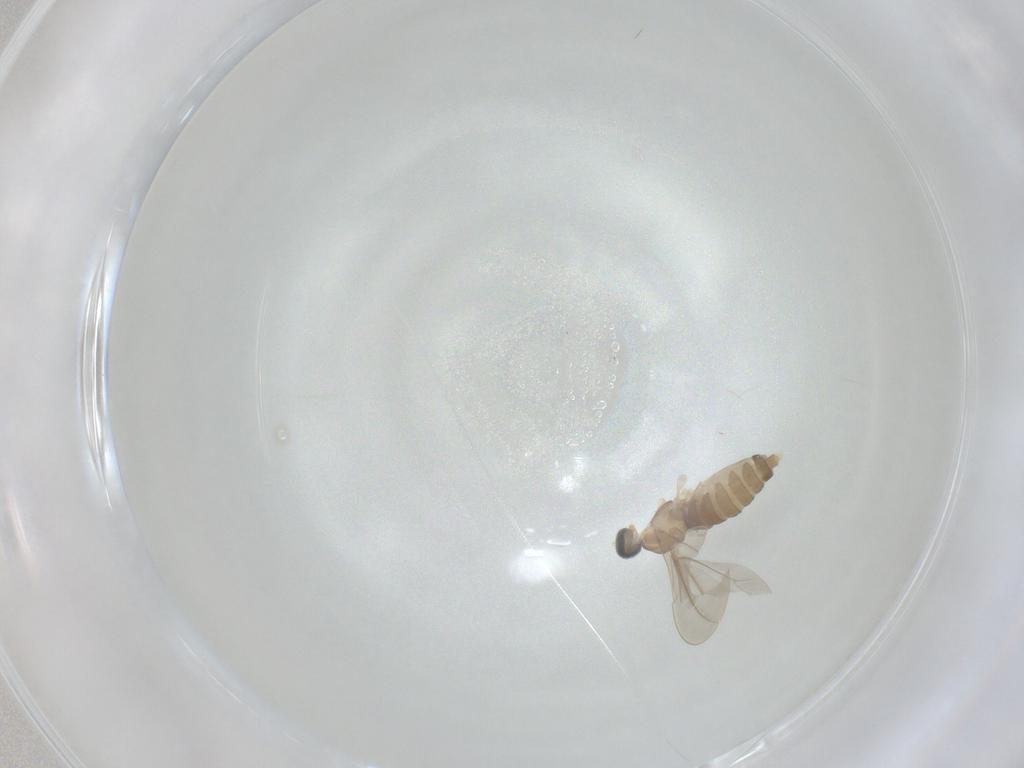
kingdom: Animalia
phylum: Arthropoda
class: Insecta
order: Diptera
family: Cecidomyiidae
